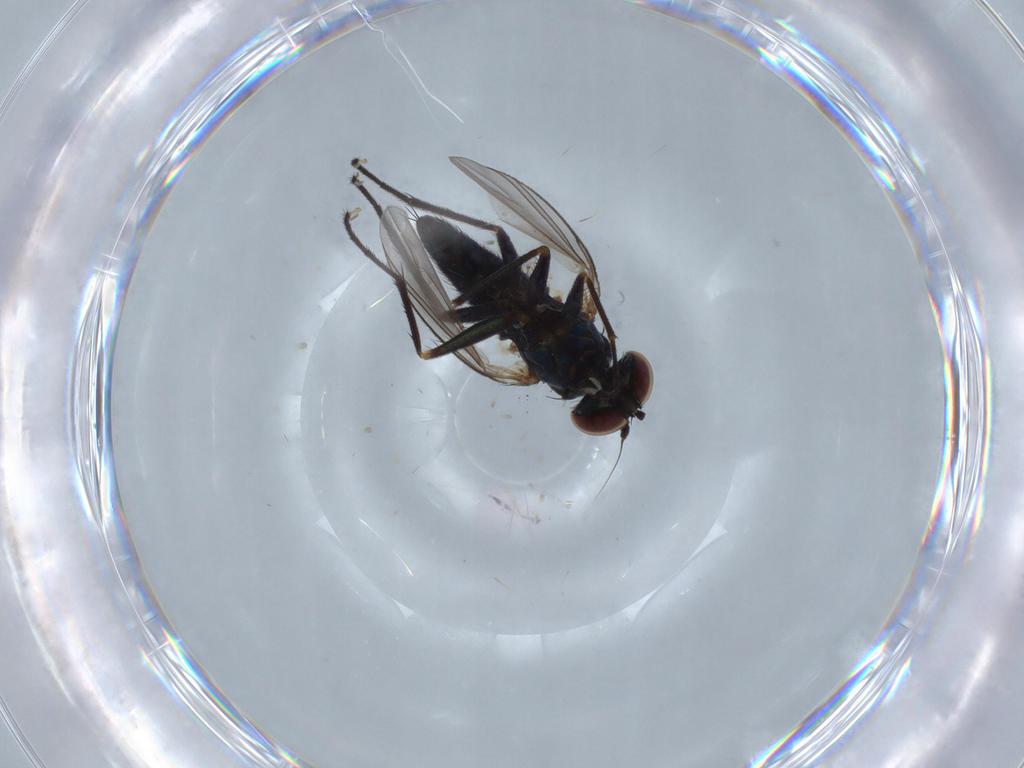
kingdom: Animalia
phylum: Arthropoda
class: Insecta
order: Diptera
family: Dolichopodidae
